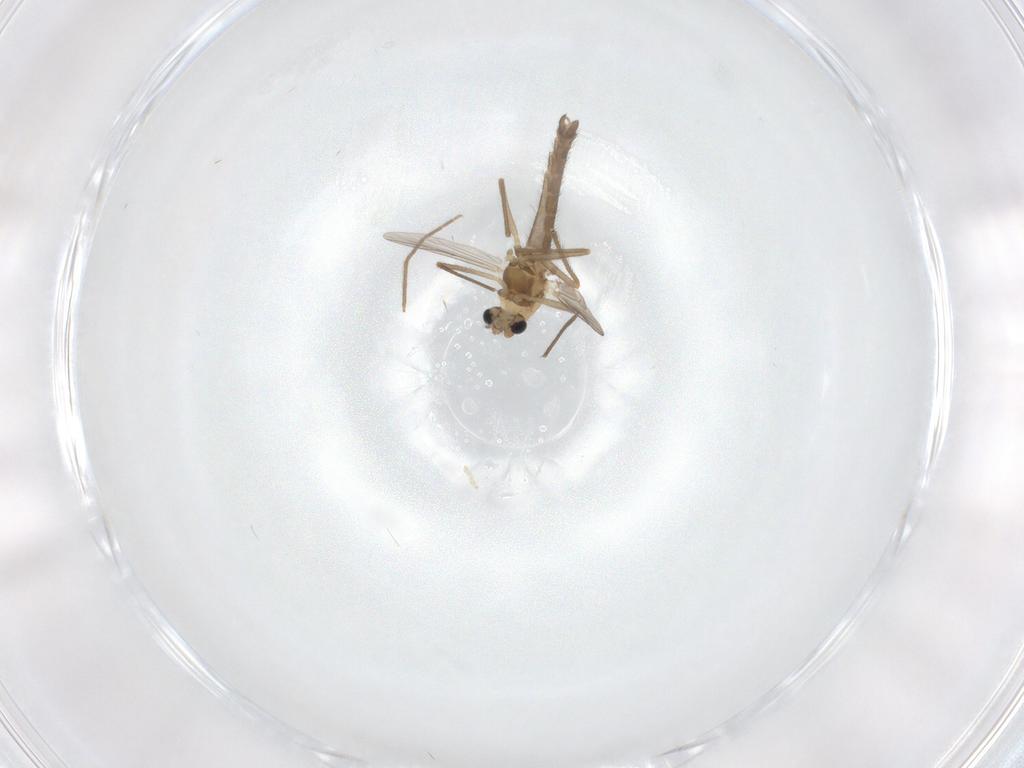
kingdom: Animalia
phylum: Arthropoda
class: Insecta
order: Diptera
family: Chironomidae
